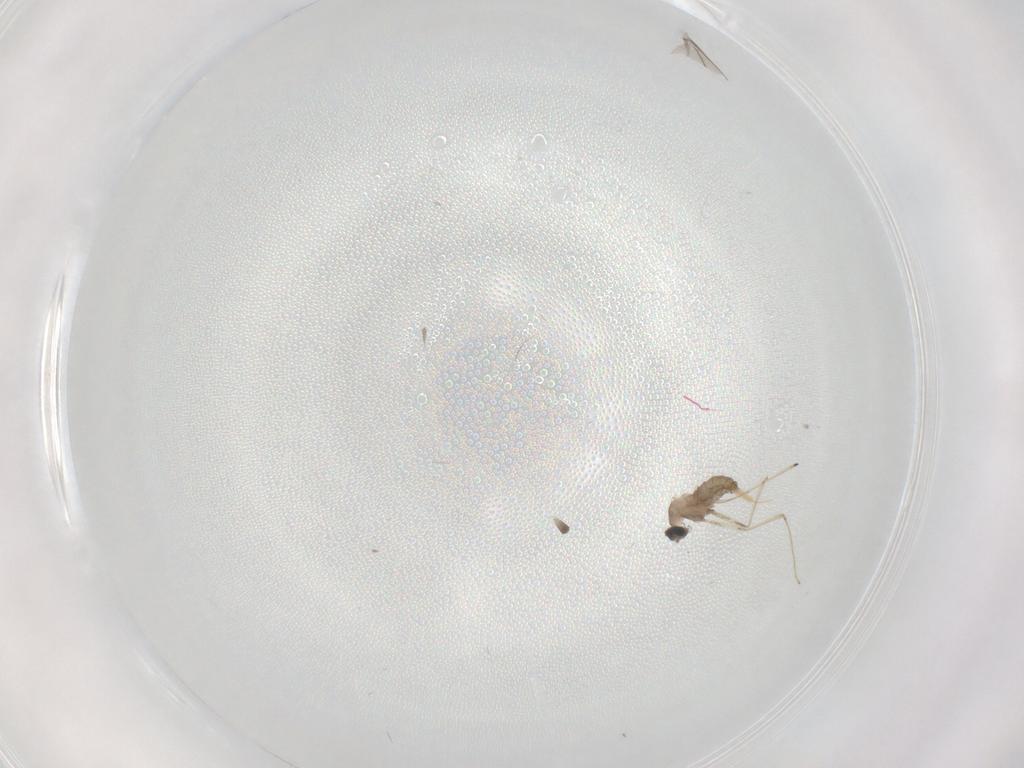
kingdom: Animalia
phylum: Arthropoda
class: Insecta
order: Diptera
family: Cecidomyiidae
